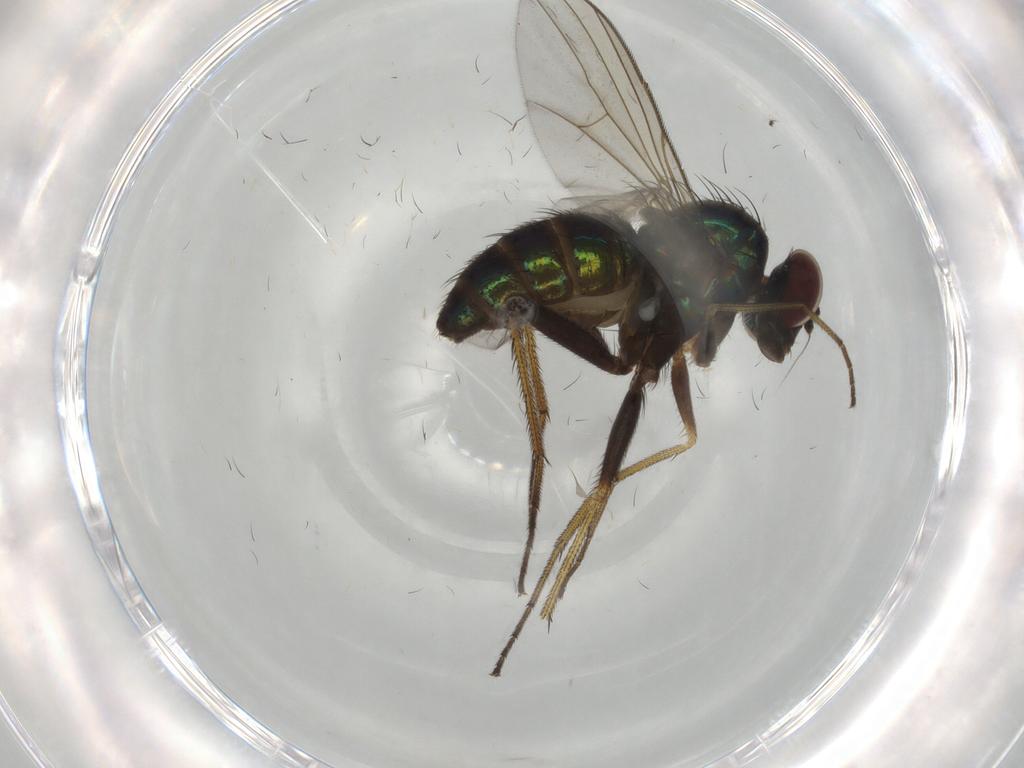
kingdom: Animalia
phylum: Arthropoda
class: Insecta
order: Diptera
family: Dolichopodidae
